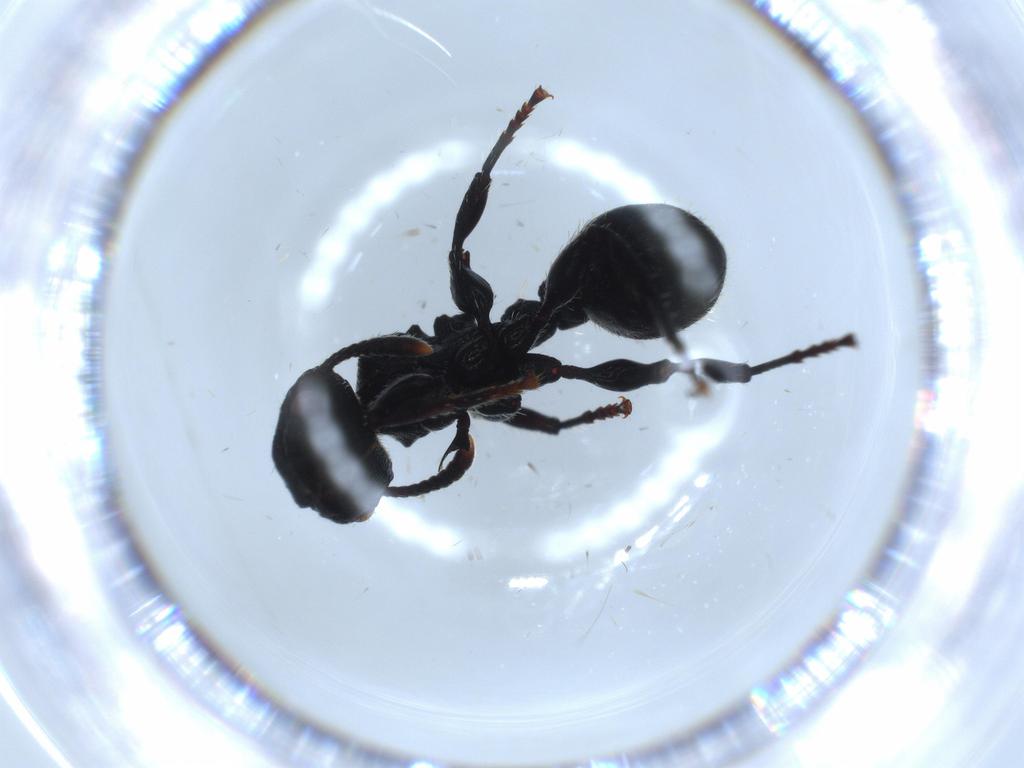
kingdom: Animalia
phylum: Arthropoda
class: Insecta
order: Hymenoptera
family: Formicidae
